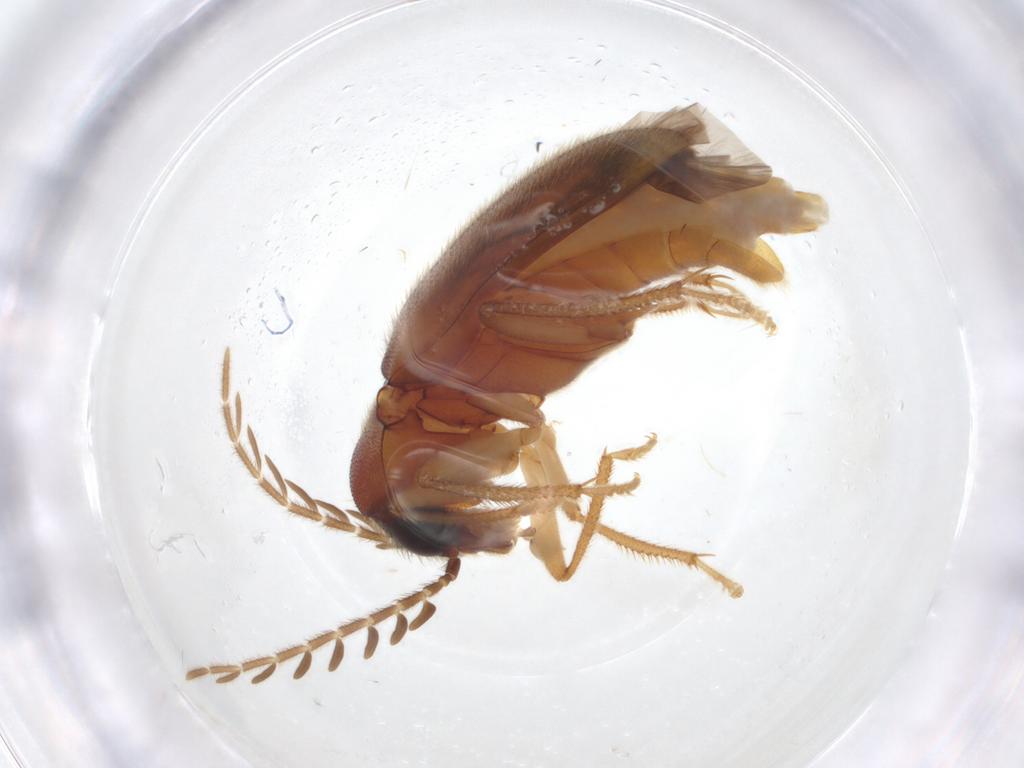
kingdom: Animalia
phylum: Arthropoda
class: Insecta
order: Coleoptera
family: Ptilodactylidae
